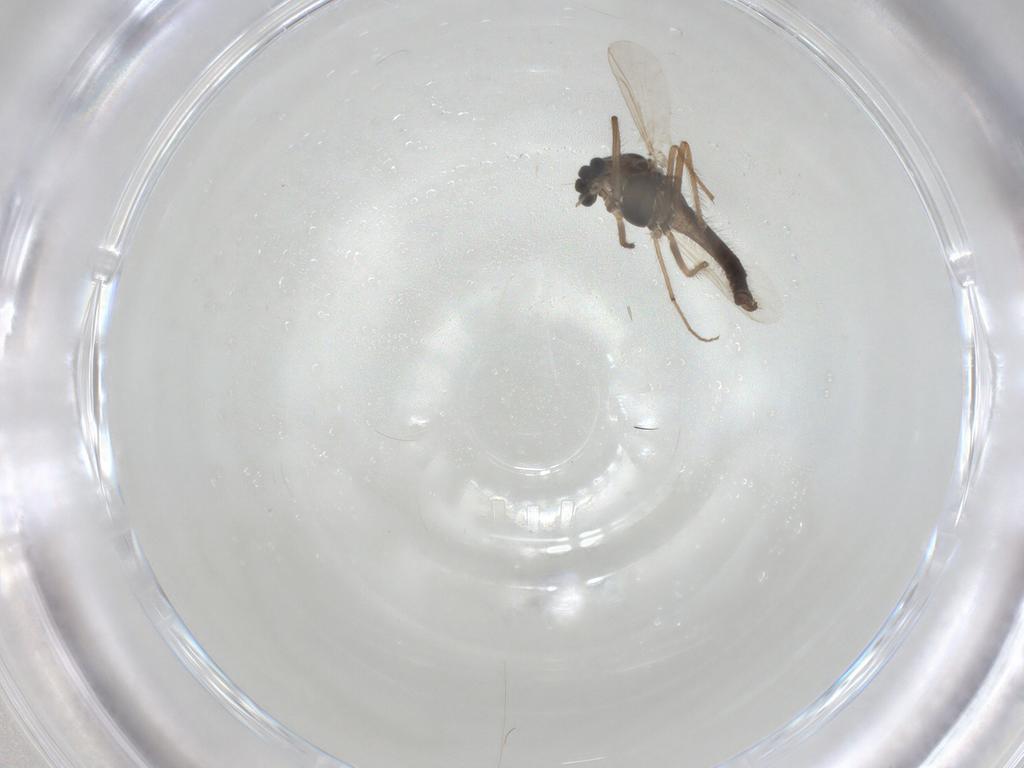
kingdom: Animalia
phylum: Arthropoda
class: Insecta
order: Diptera
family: Chironomidae
